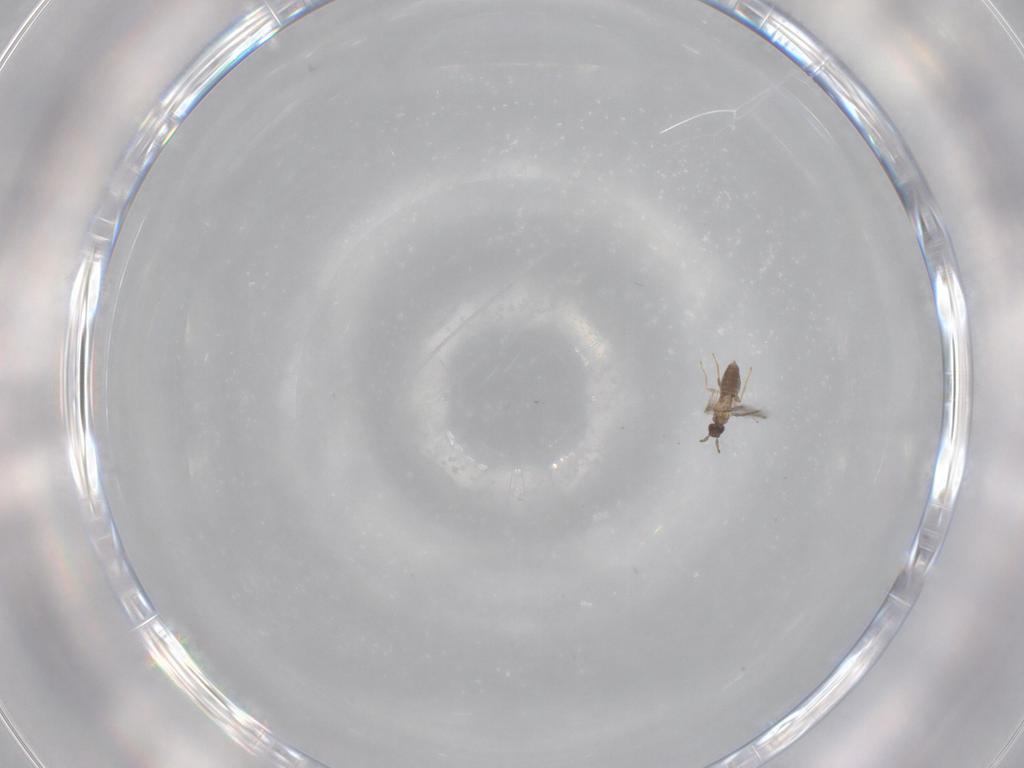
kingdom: Animalia
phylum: Arthropoda
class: Insecta
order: Hymenoptera
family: Mymaridae
